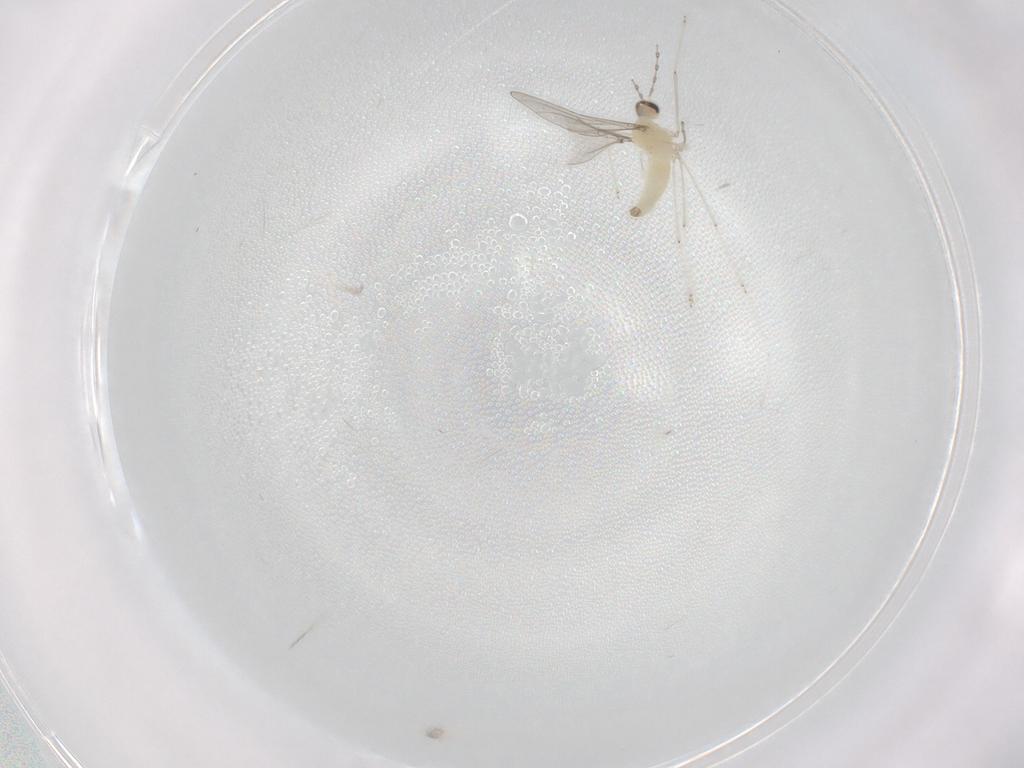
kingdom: Animalia
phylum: Arthropoda
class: Insecta
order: Diptera
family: Cecidomyiidae
